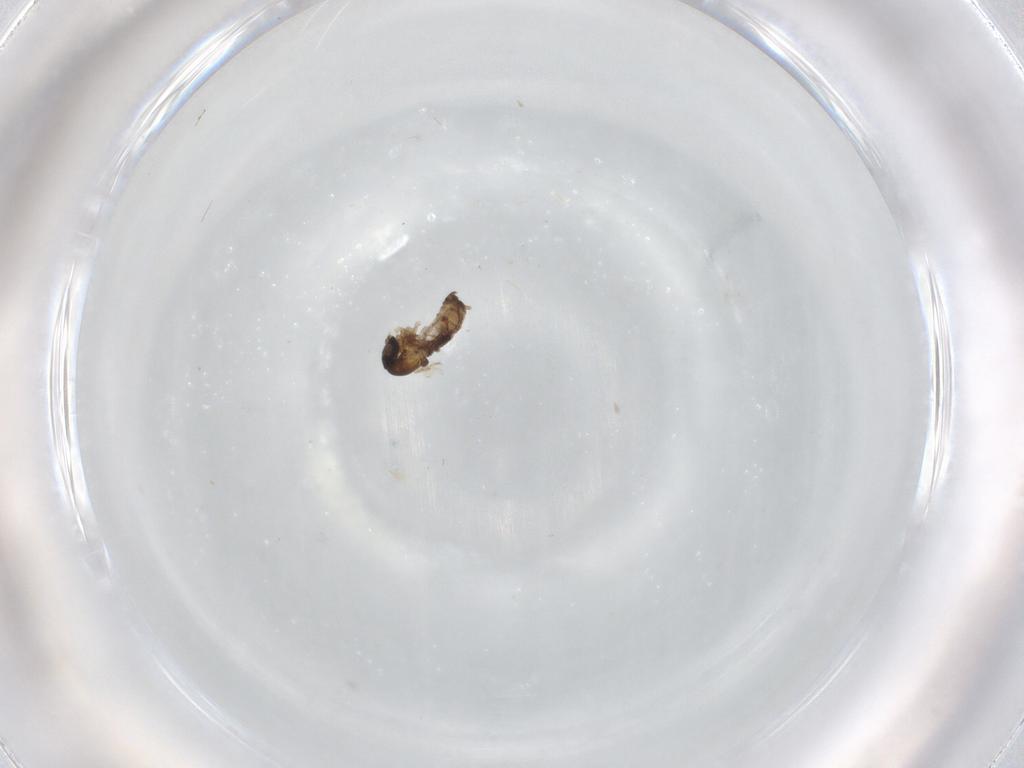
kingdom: Animalia
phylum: Arthropoda
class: Insecta
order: Diptera
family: Psychodidae
